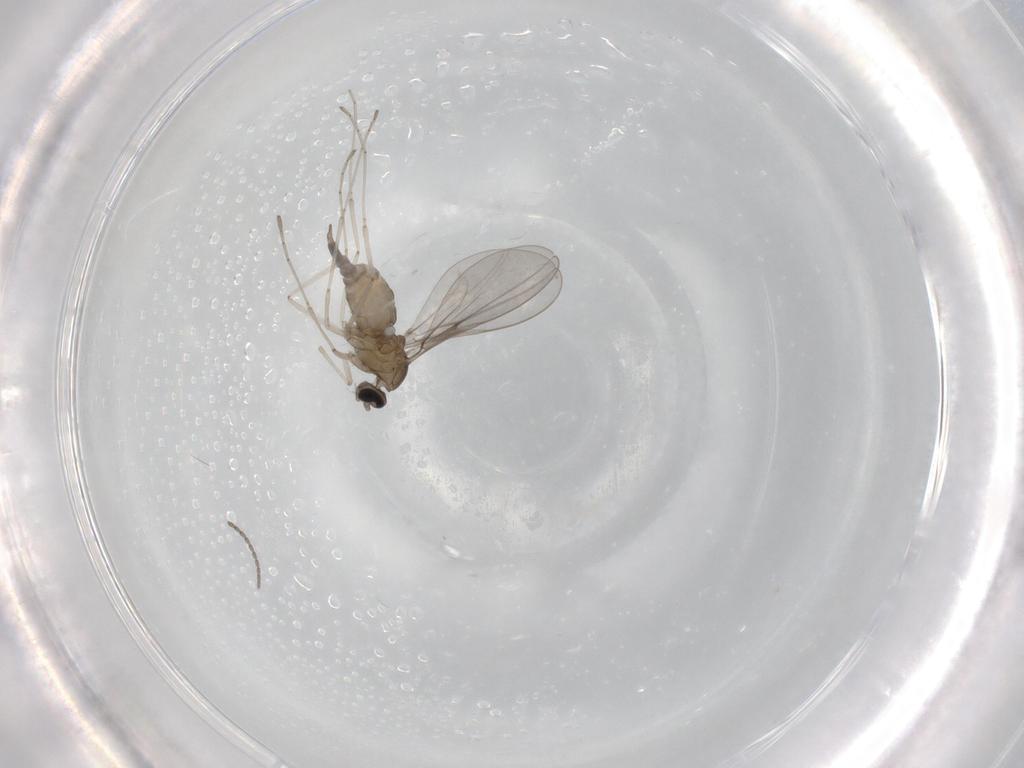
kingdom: Animalia
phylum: Arthropoda
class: Insecta
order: Diptera
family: Cecidomyiidae
